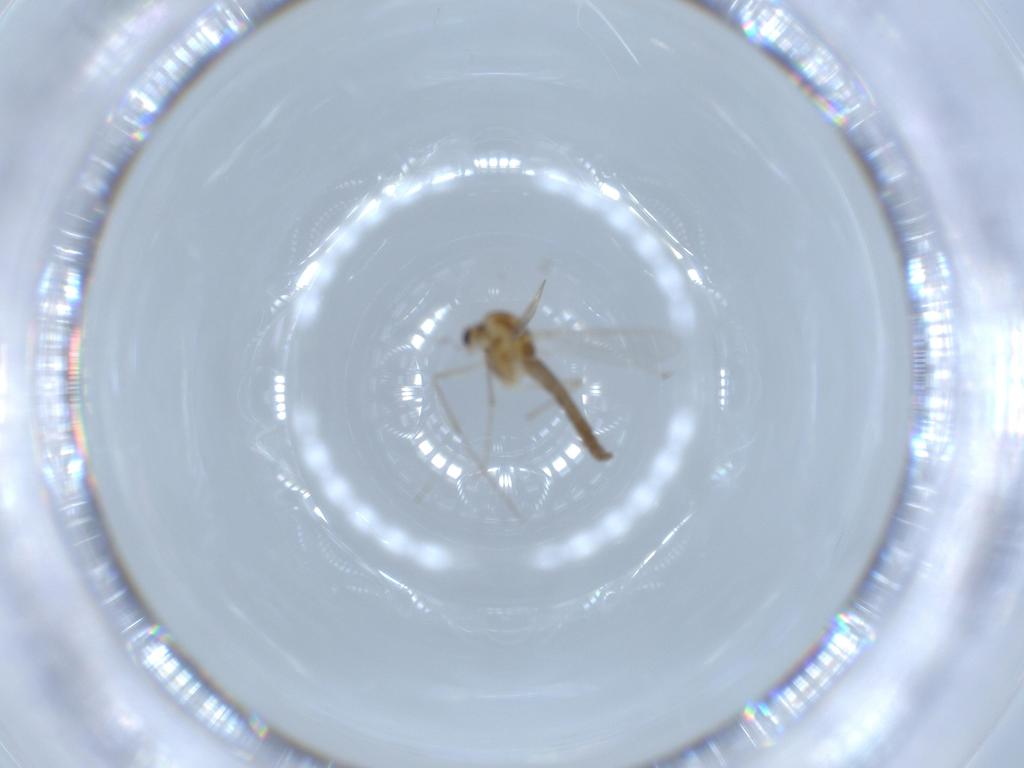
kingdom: Animalia
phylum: Arthropoda
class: Insecta
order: Diptera
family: Chironomidae
